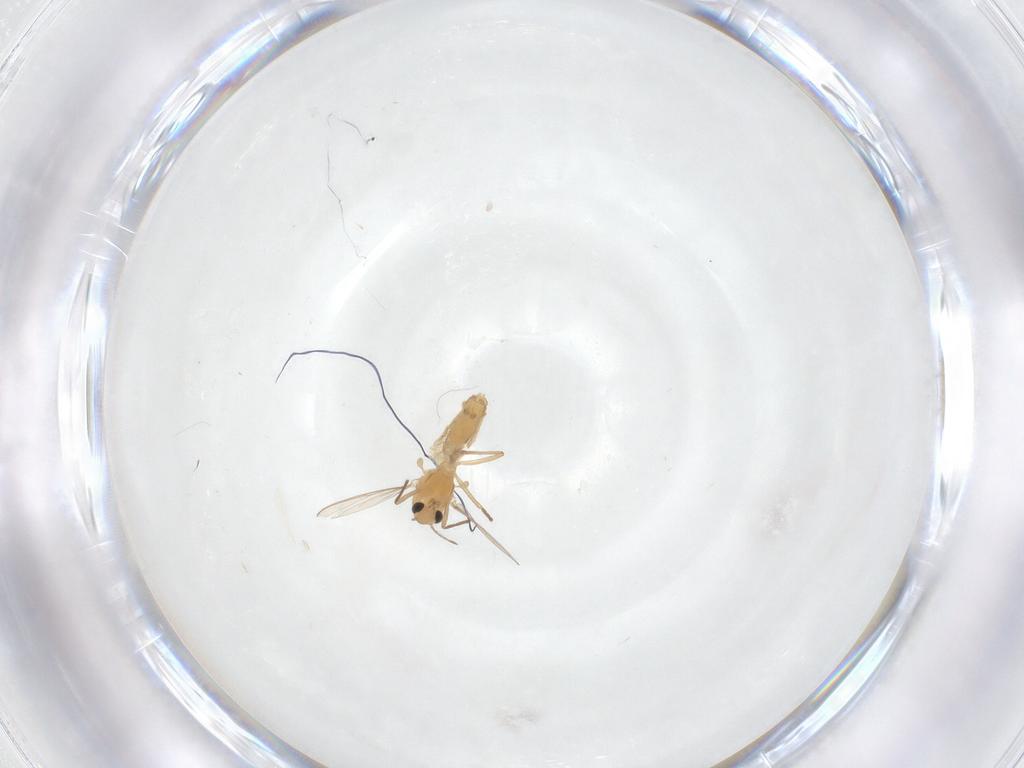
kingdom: Animalia
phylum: Arthropoda
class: Insecta
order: Diptera
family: Chironomidae
